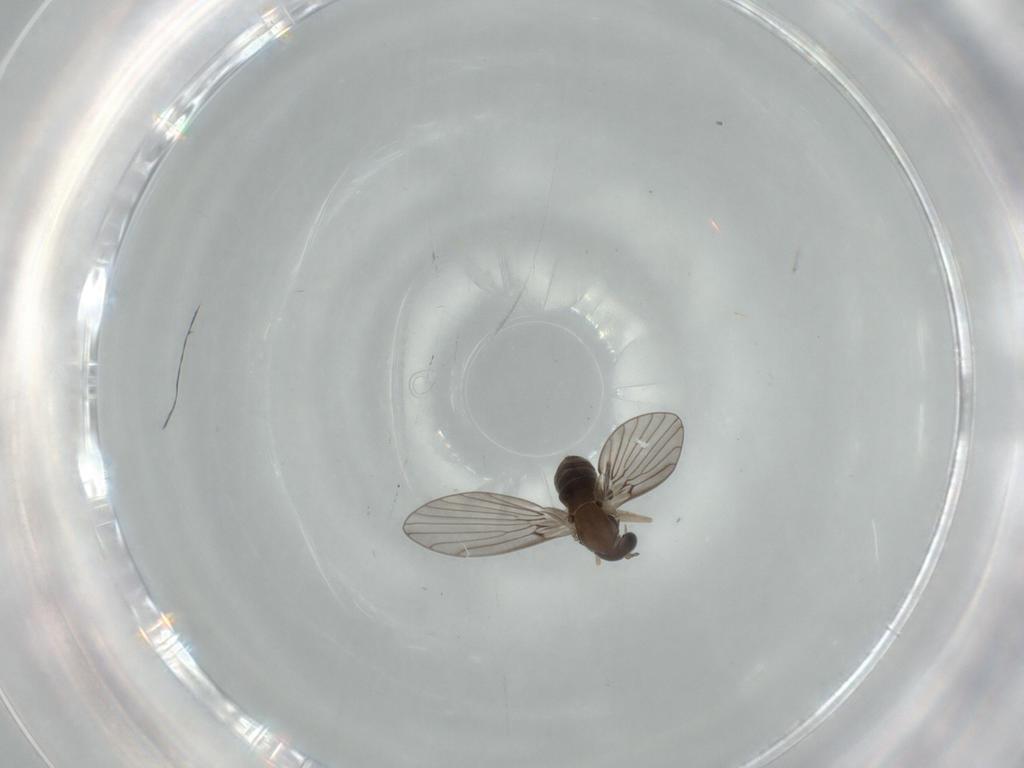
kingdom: Animalia
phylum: Arthropoda
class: Insecta
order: Diptera
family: Psychodidae
